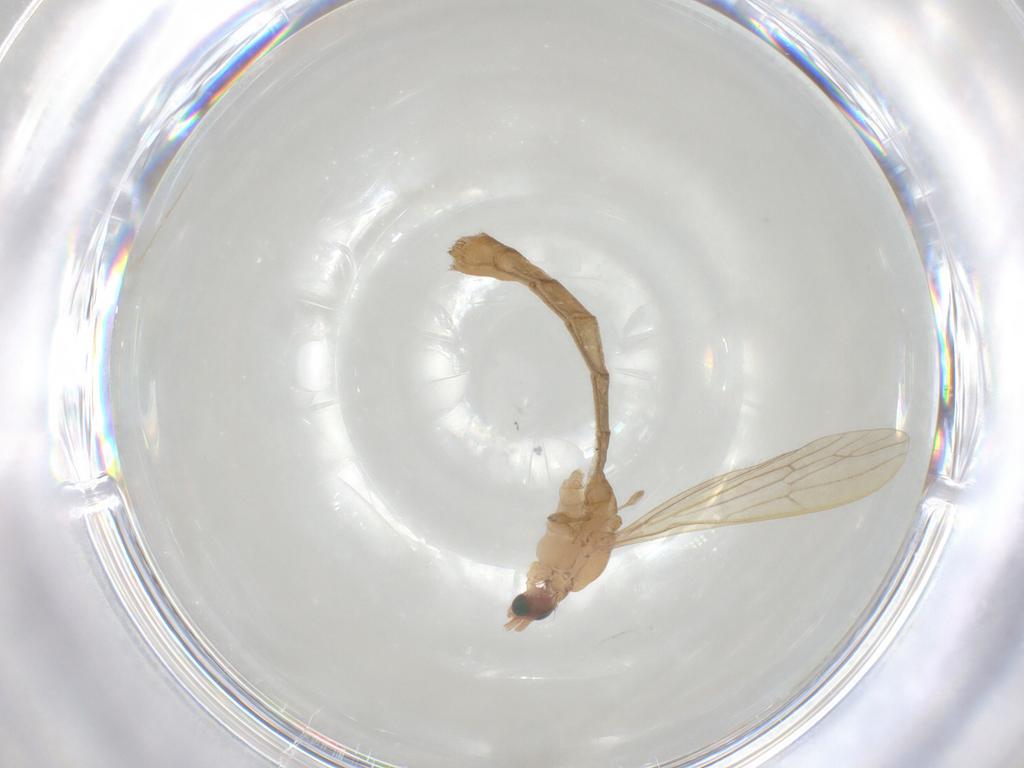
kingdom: Animalia
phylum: Arthropoda
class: Insecta
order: Diptera
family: Limoniidae
